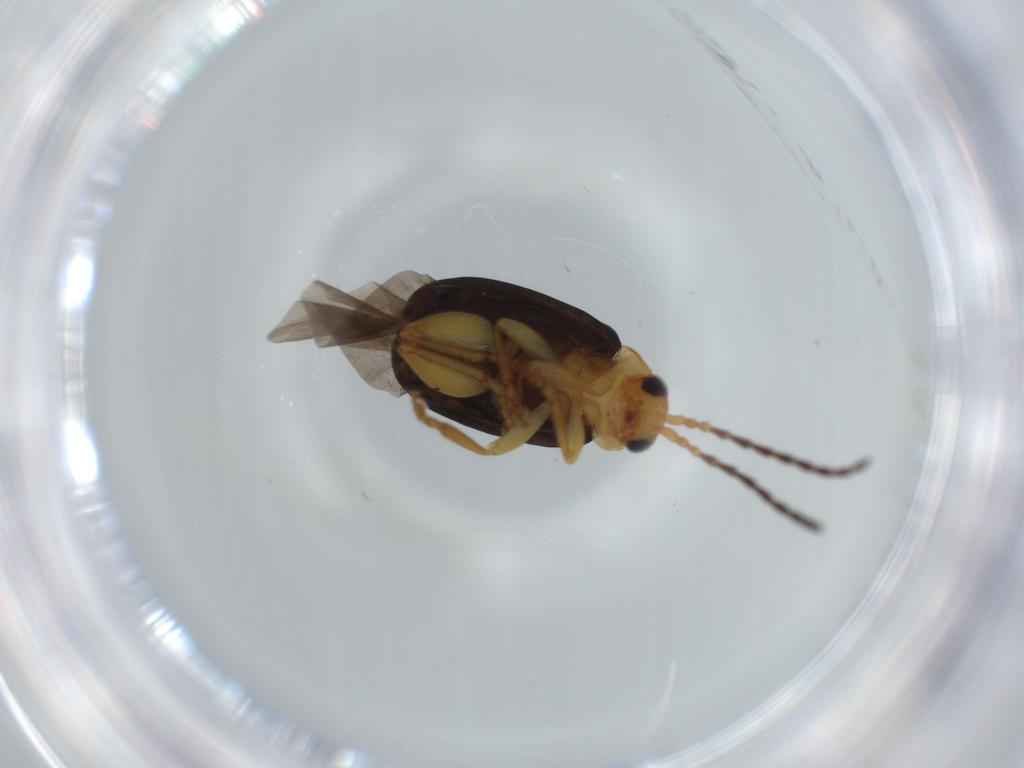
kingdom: Animalia
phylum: Arthropoda
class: Insecta
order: Coleoptera
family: Chrysomelidae
